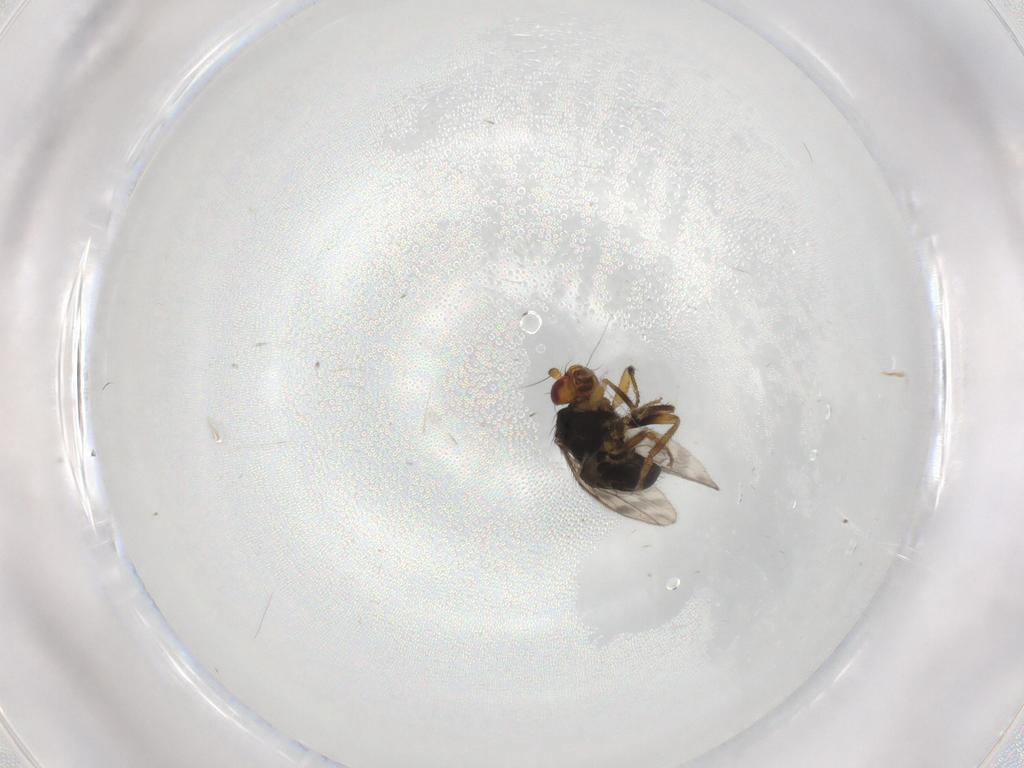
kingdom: Animalia
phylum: Arthropoda
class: Insecta
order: Diptera
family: Sphaeroceridae
